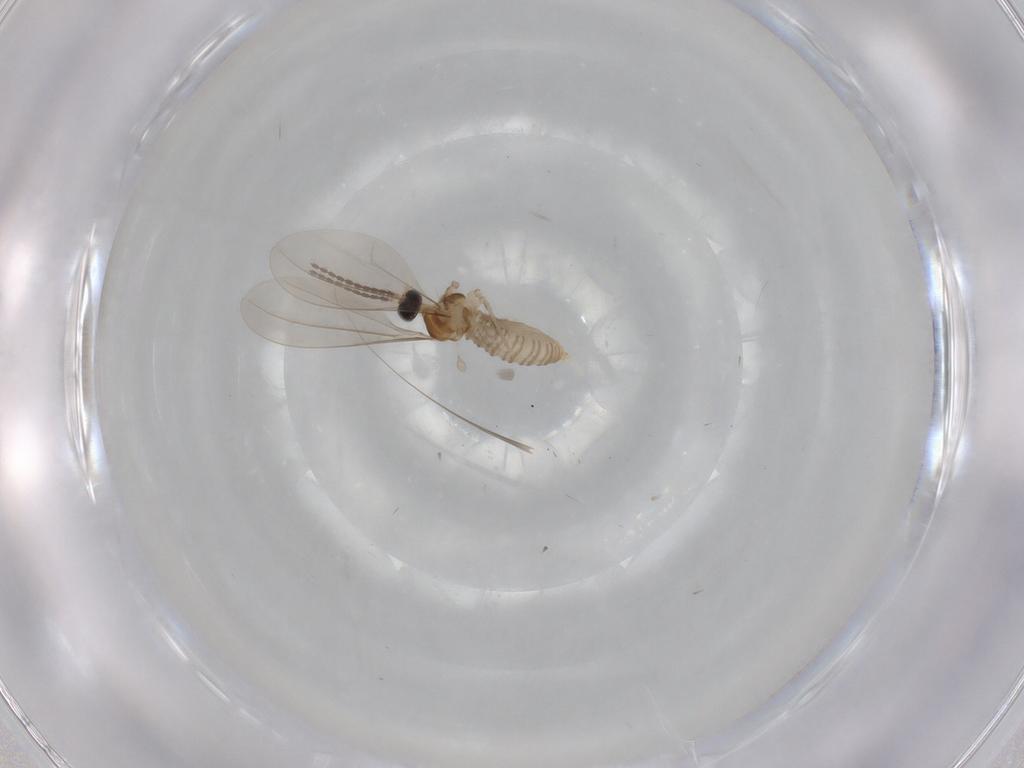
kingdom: Animalia
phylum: Arthropoda
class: Insecta
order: Diptera
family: Cecidomyiidae
